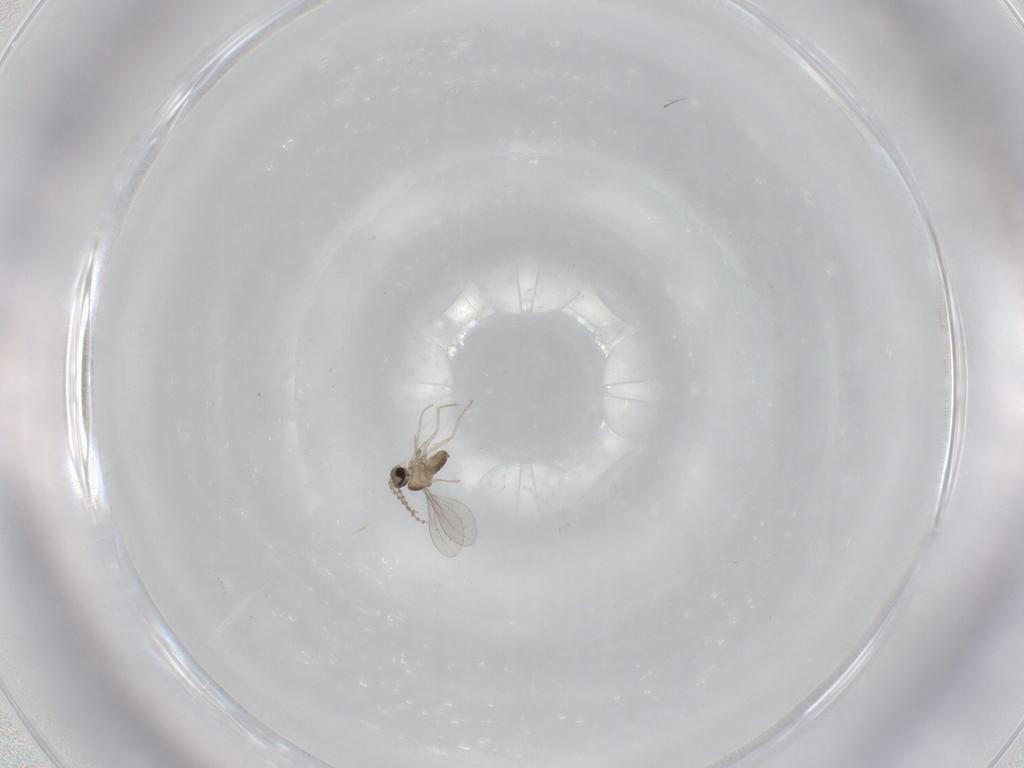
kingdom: Animalia
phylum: Arthropoda
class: Insecta
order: Diptera
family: Cecidomyiidae
